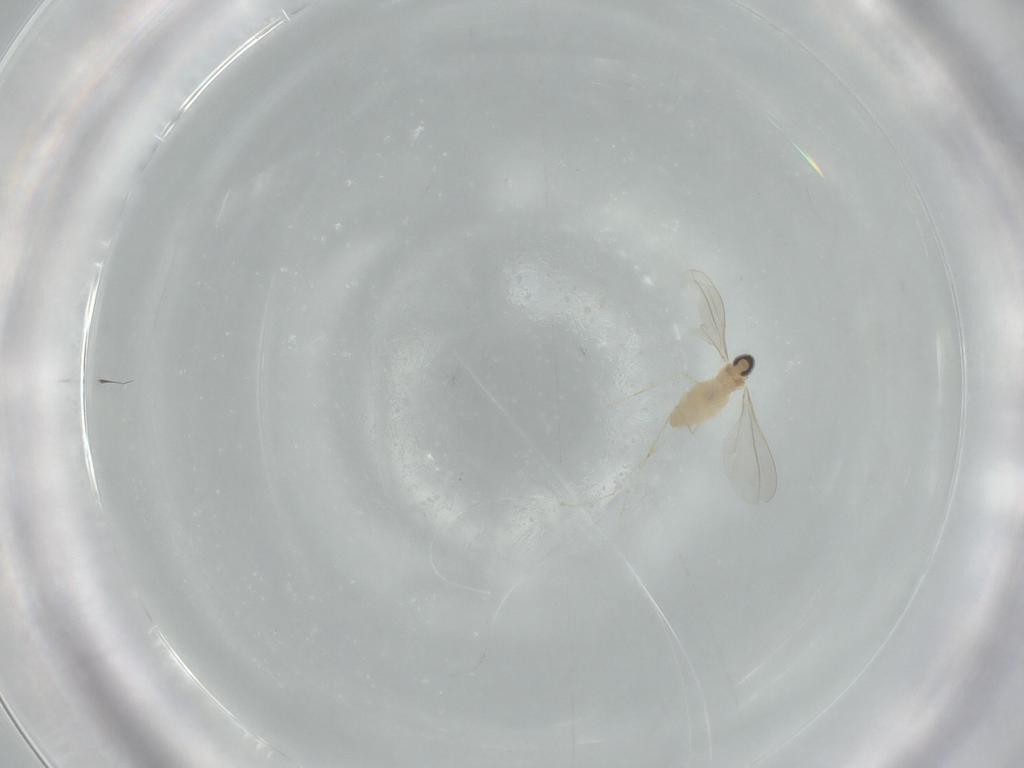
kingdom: Animalia
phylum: Arthropoda
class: Insecta
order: Diptera
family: Cecidomyiidae
